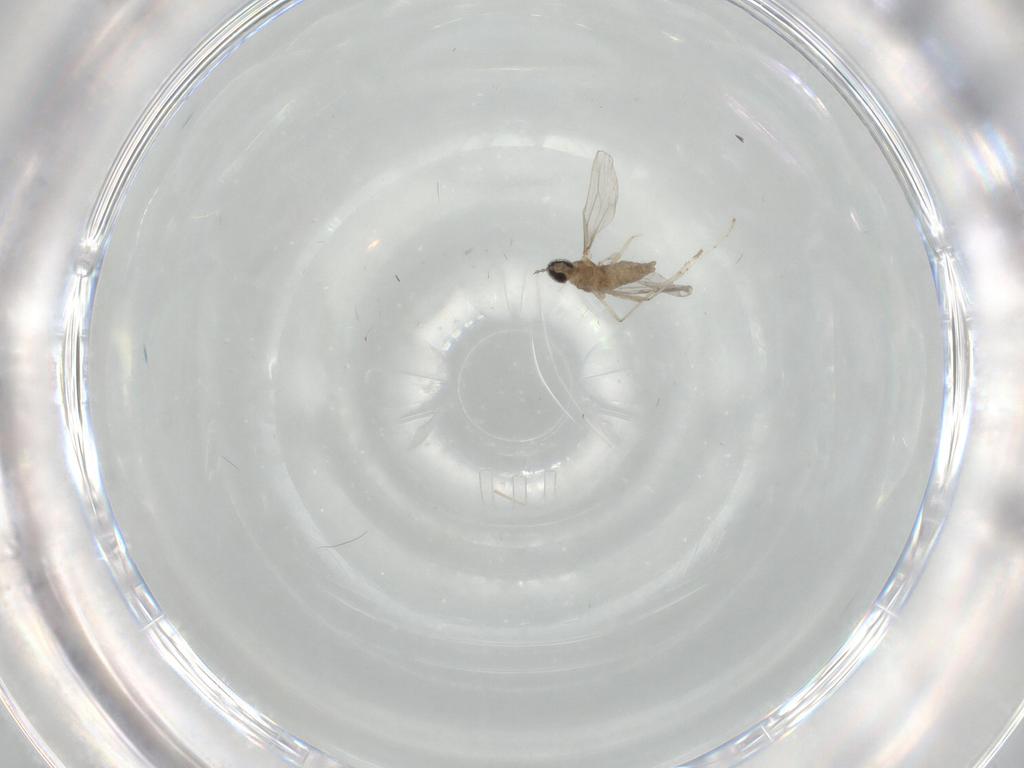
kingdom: Animalia
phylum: Arthropoda
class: Insecta
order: Diptera
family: Cecidomyiidae
